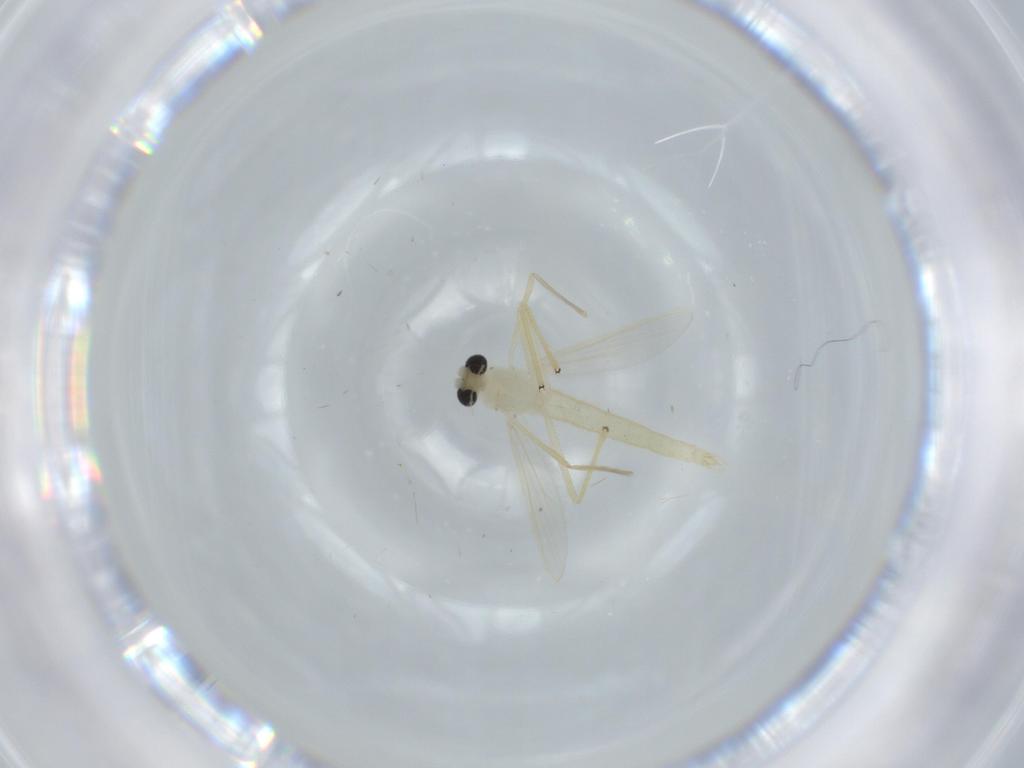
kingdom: Animalia
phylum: Arthropoda
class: Insecta
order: Diptera
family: Chironomidae
